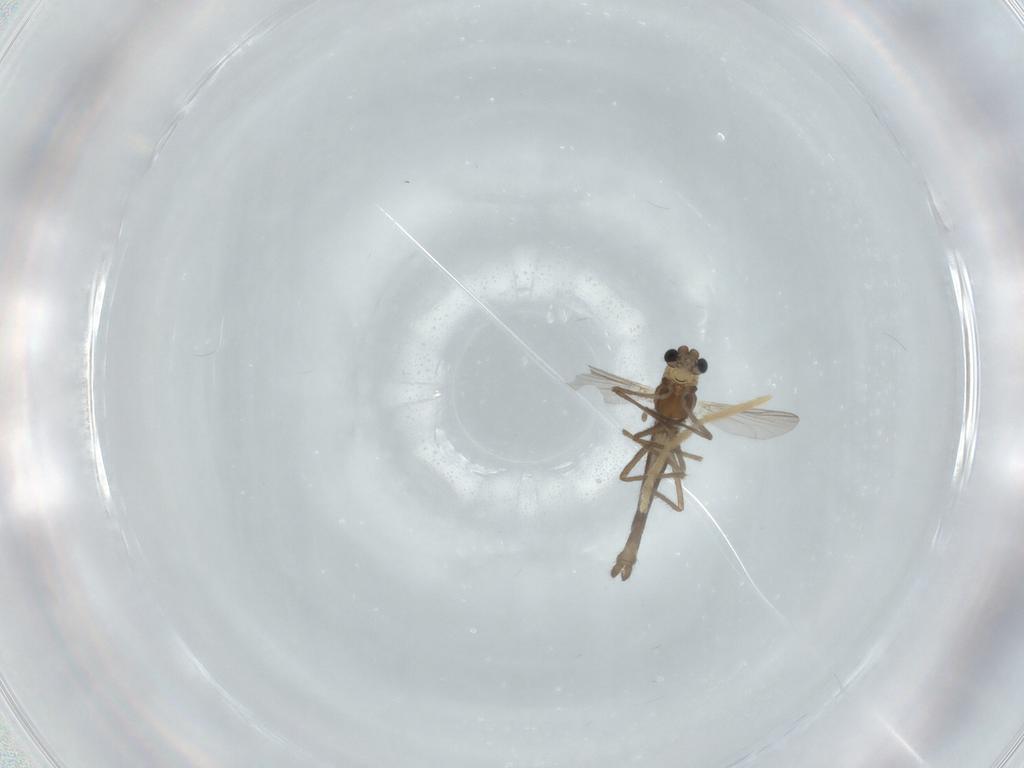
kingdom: Animalia
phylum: Arthropoda
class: Insecta
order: Diptera
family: Chironomidae
